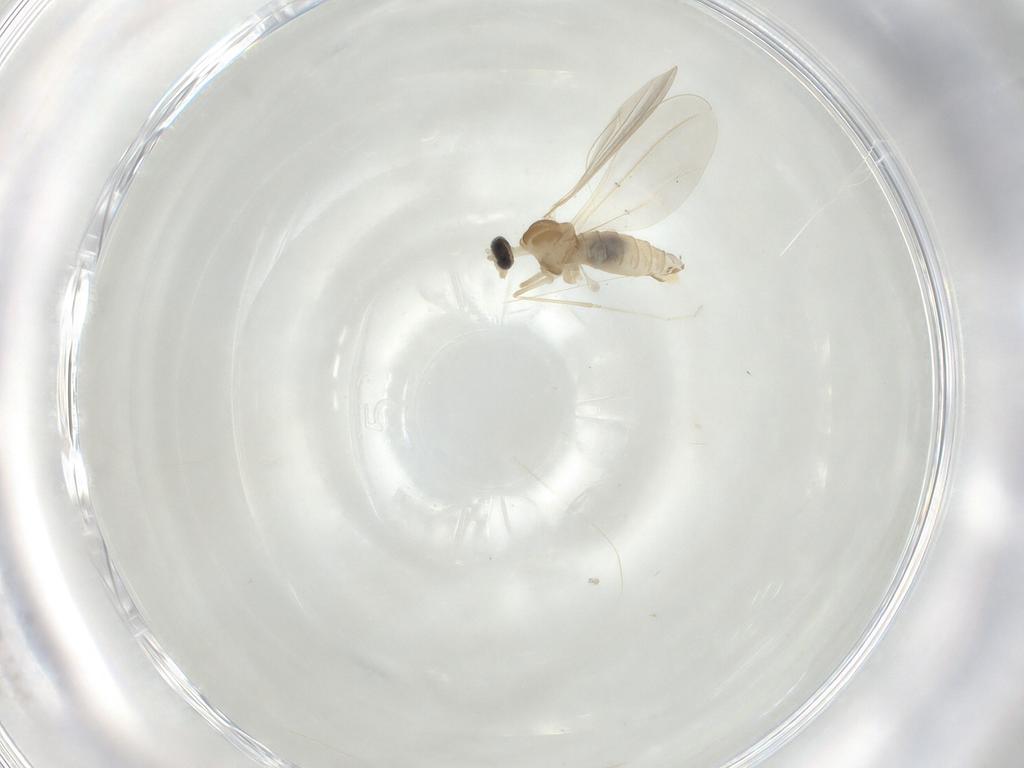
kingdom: Animalia
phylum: Arthropoda
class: Insecta
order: Diptera
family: Cecidomyiidae
